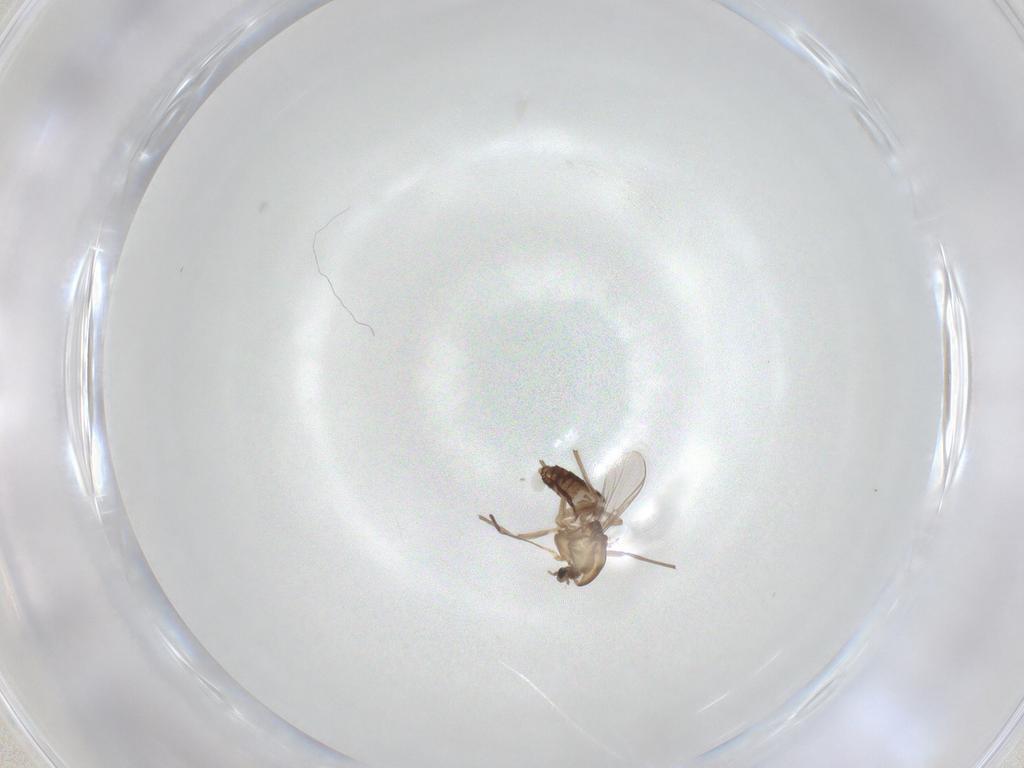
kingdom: Animalia
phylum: Arthropoda
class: Insecta
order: Diptera
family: Chironomidae
